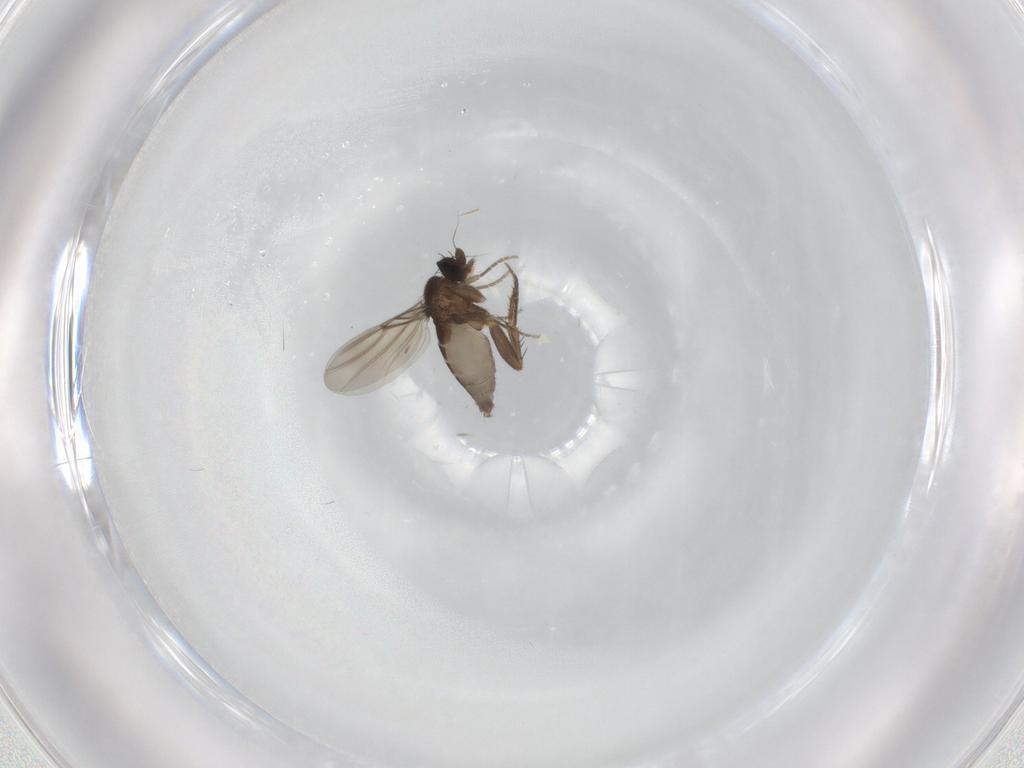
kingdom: Animalia
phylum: Arthropoda
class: Insecta
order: Diptera
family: Phoridae
